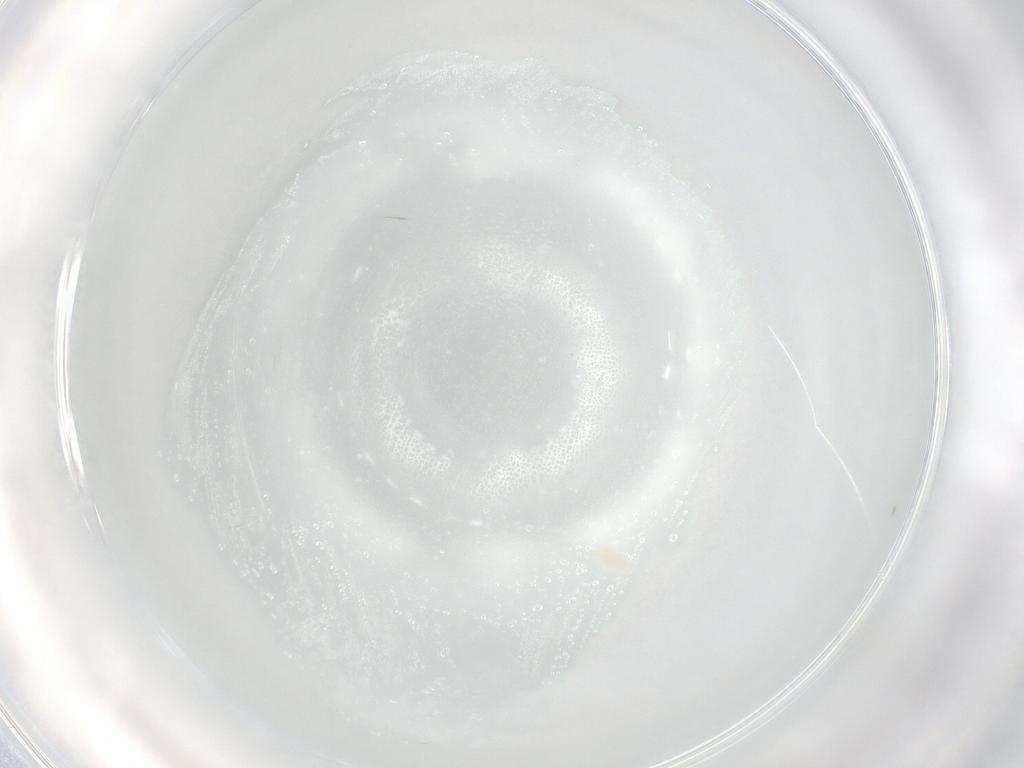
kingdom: Animalia
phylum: Arthropoda
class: Arachnida
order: Trombidiformes
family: Eupodidae
